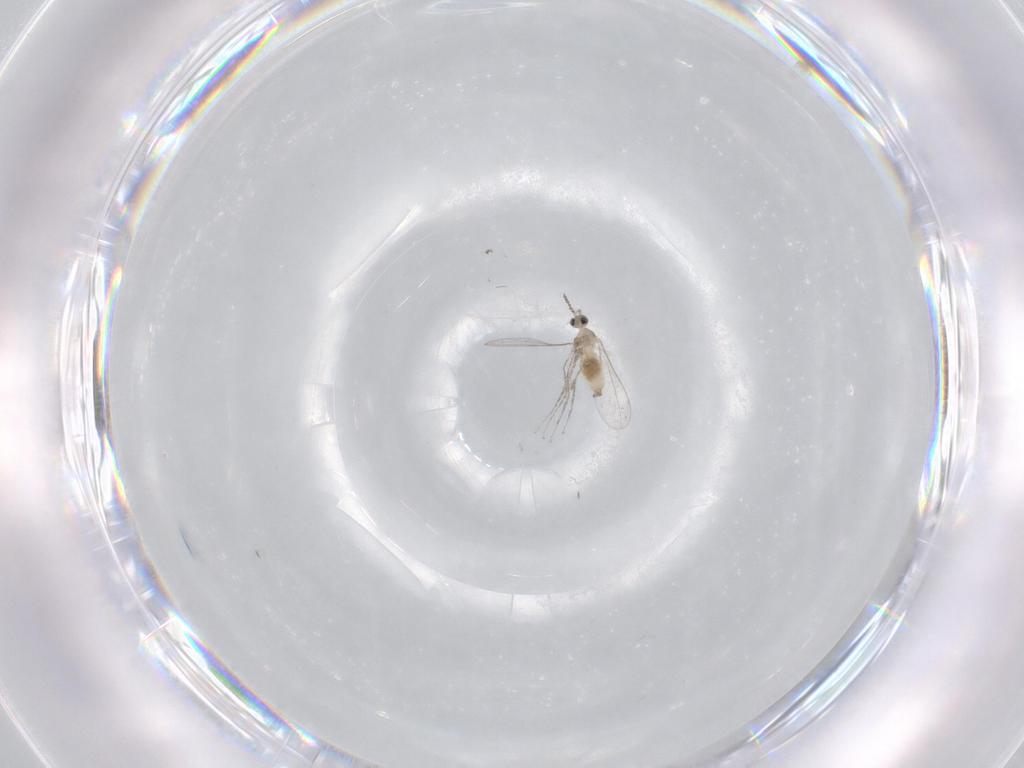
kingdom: Animalia
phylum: Arthropoda
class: Insecta
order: Diptera
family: Cecidomyiidae
